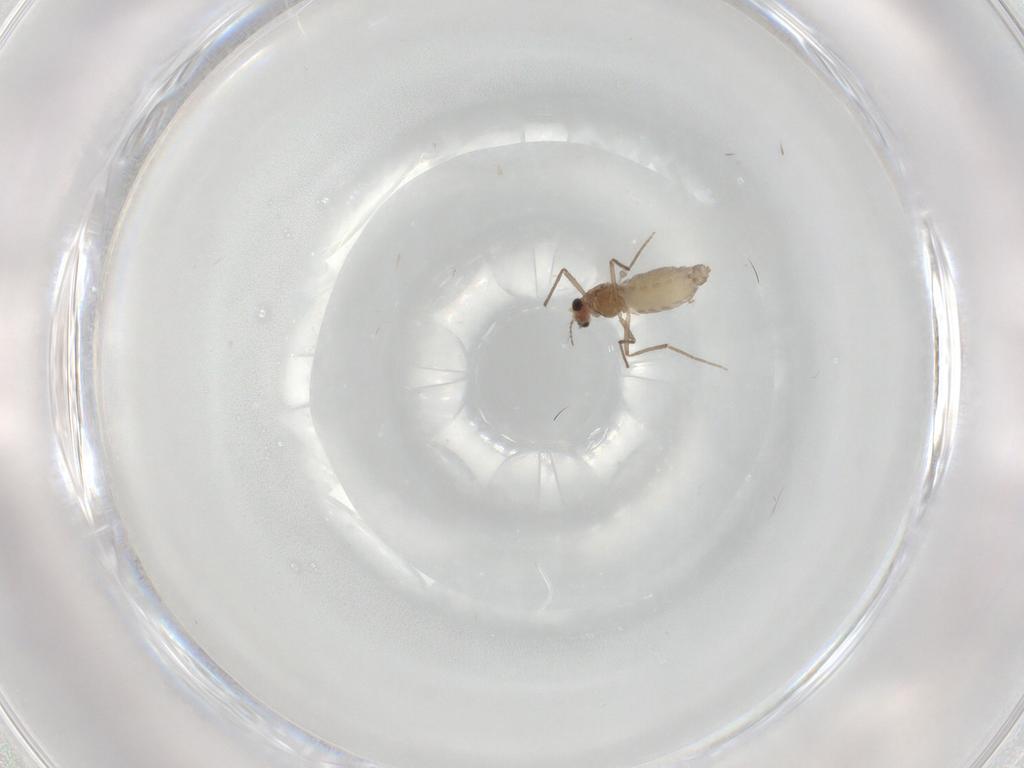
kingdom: Animalia
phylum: Arthropoda
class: Insecta
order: Diptera
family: Chironomidae
